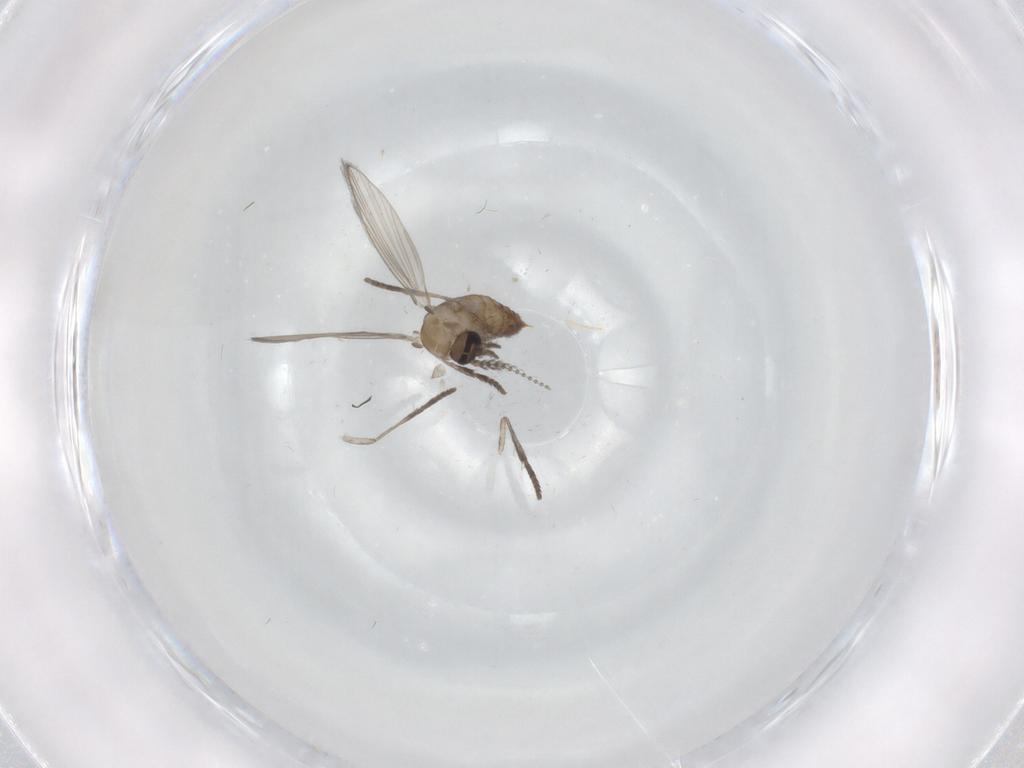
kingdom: Animalia
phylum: Arthropoda
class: Insecta
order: Diptera
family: Psychodidae
